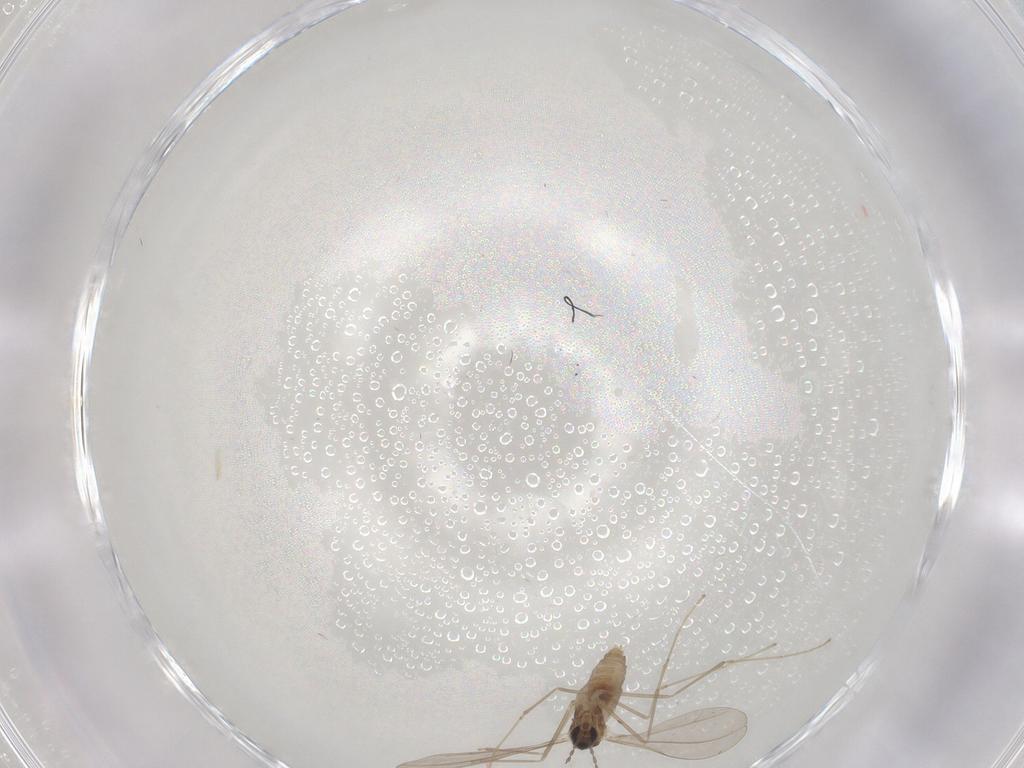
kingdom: Animalia
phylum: Arthropoda
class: Insecta
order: Diptera
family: Cecidomyiidae
